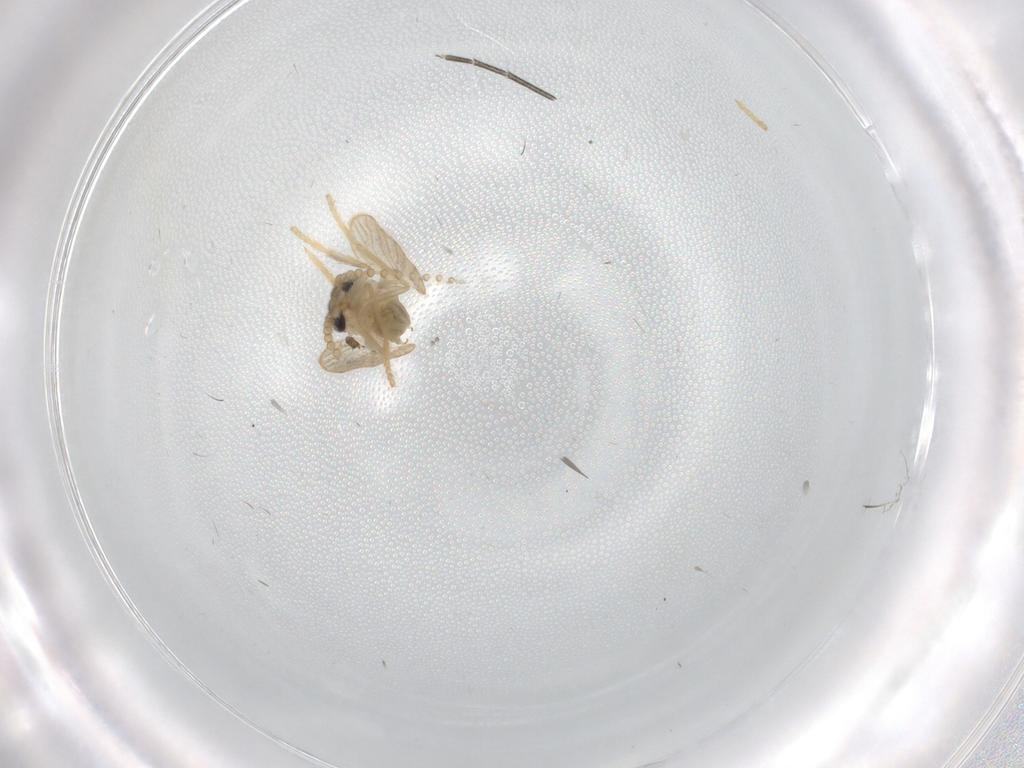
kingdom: Animalia
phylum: Arthropoda
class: Insecta
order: Diptera
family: Psychodidae
